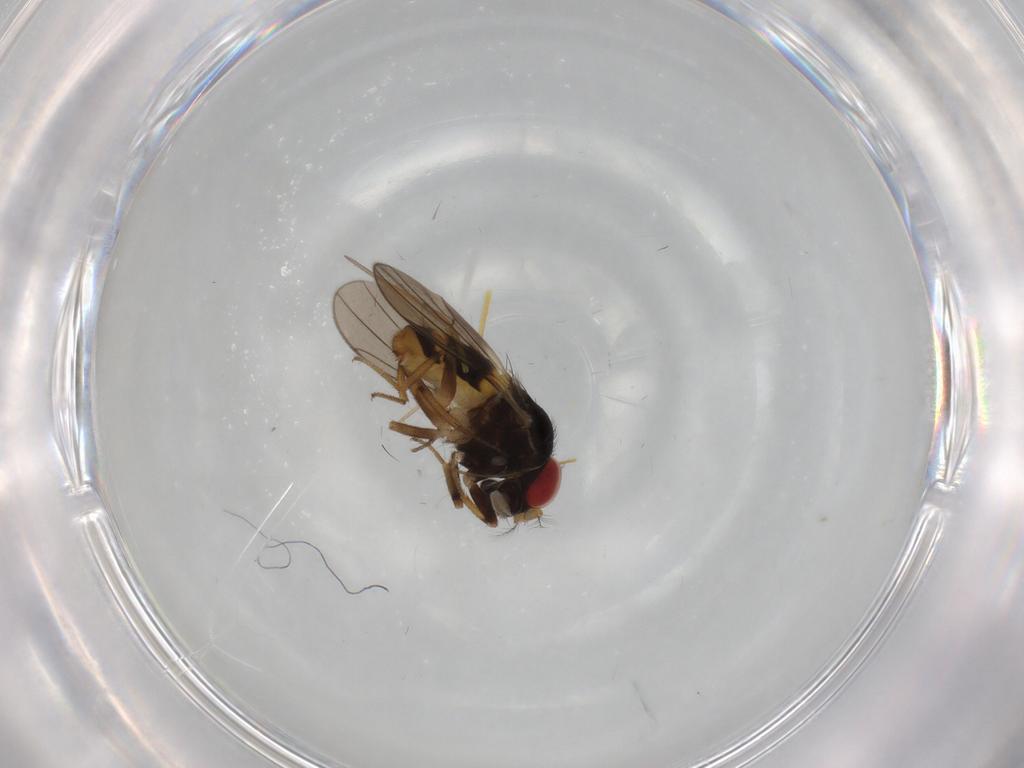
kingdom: Animalia
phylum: Arthropoda
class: Insecta
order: Diptera
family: Drosophilidae
